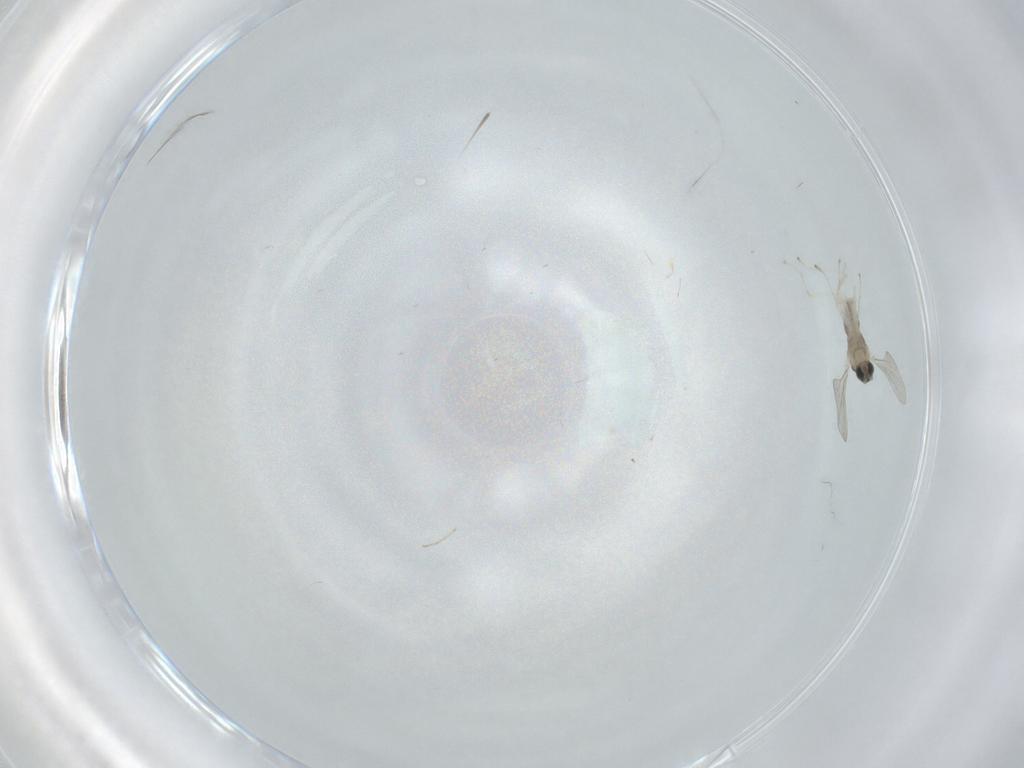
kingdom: Animalia
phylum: Arthropoda
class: Insecta
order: Diptera
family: Cecidomyiidae
